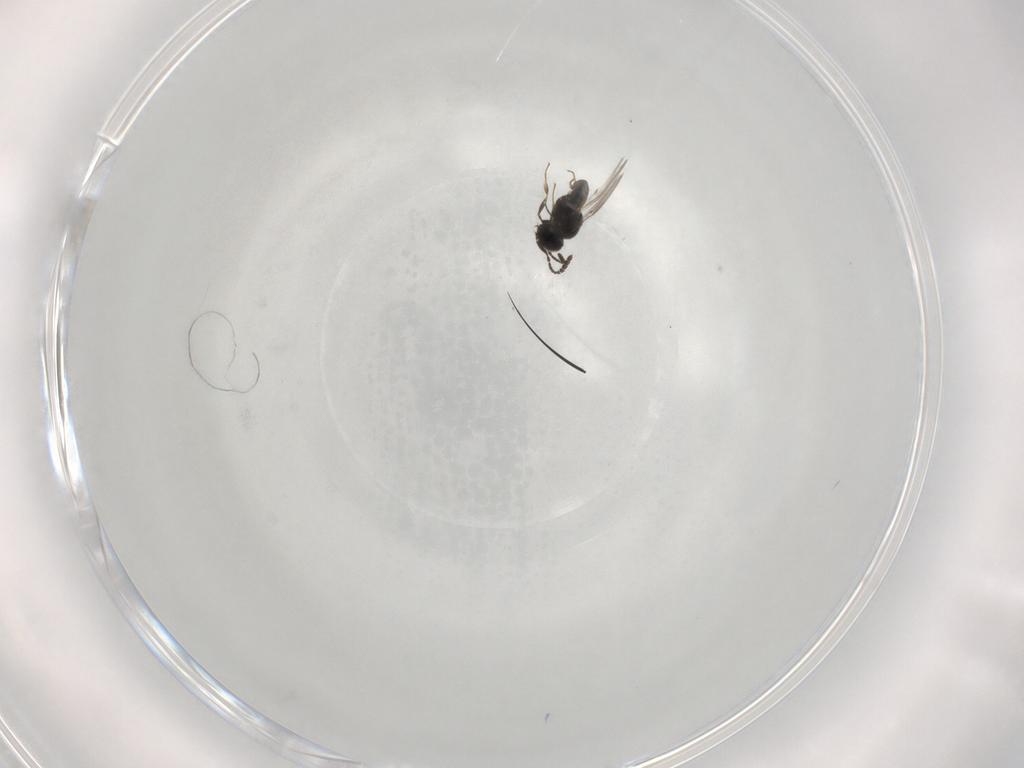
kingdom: Animalia
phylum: Arthropoda
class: Insecta
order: Hymenoptera
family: Scelionidae
